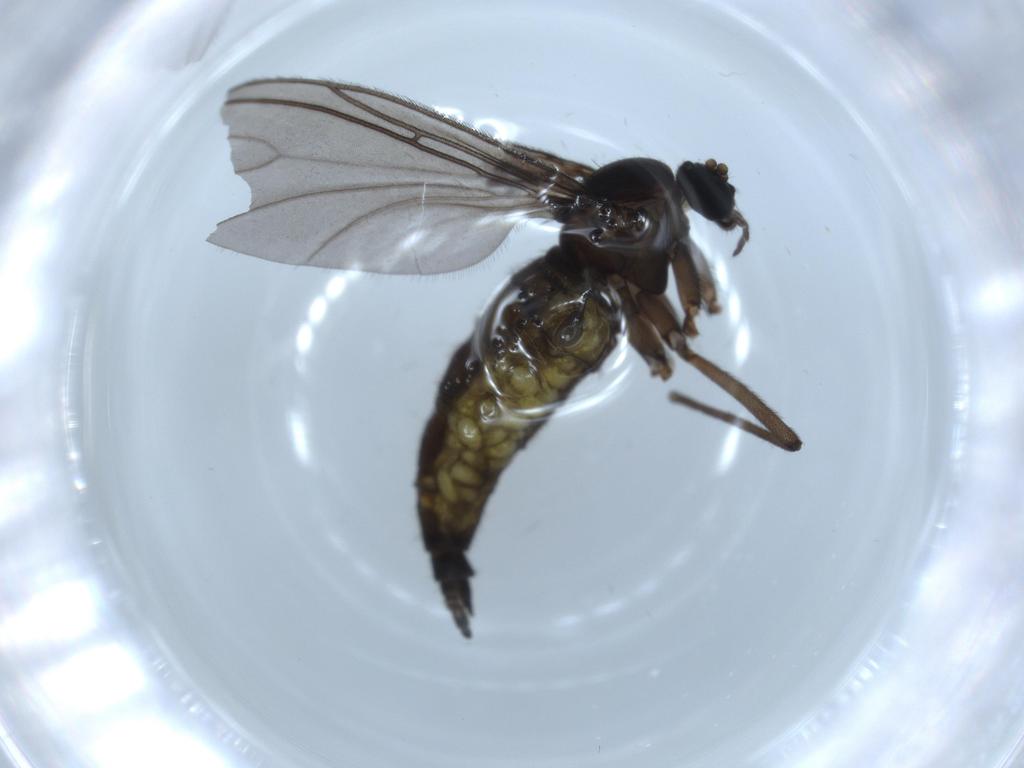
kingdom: Animalia
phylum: Arthropoda
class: Insecta
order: Diptera
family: Sciaridae
